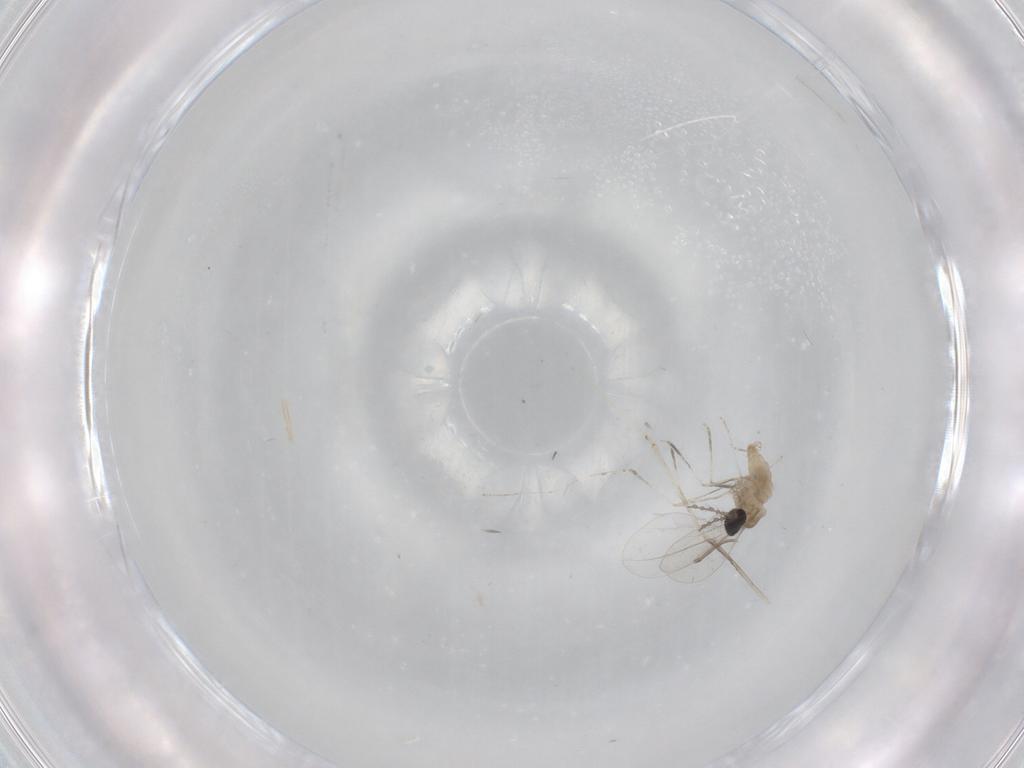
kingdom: Animalia
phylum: Arthropoda
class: Insecta
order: Diptera
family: Cecidomyiidae
